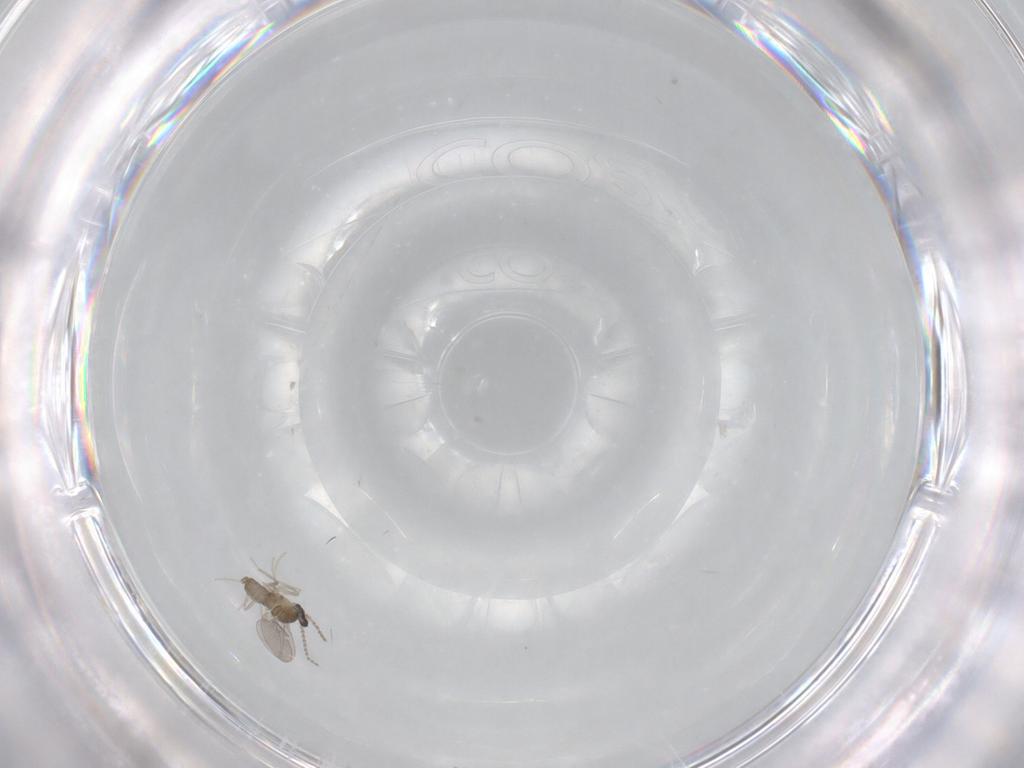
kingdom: Animalia
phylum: Arthropoda
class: Insecta
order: Diptera
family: Cecidomyiidae
